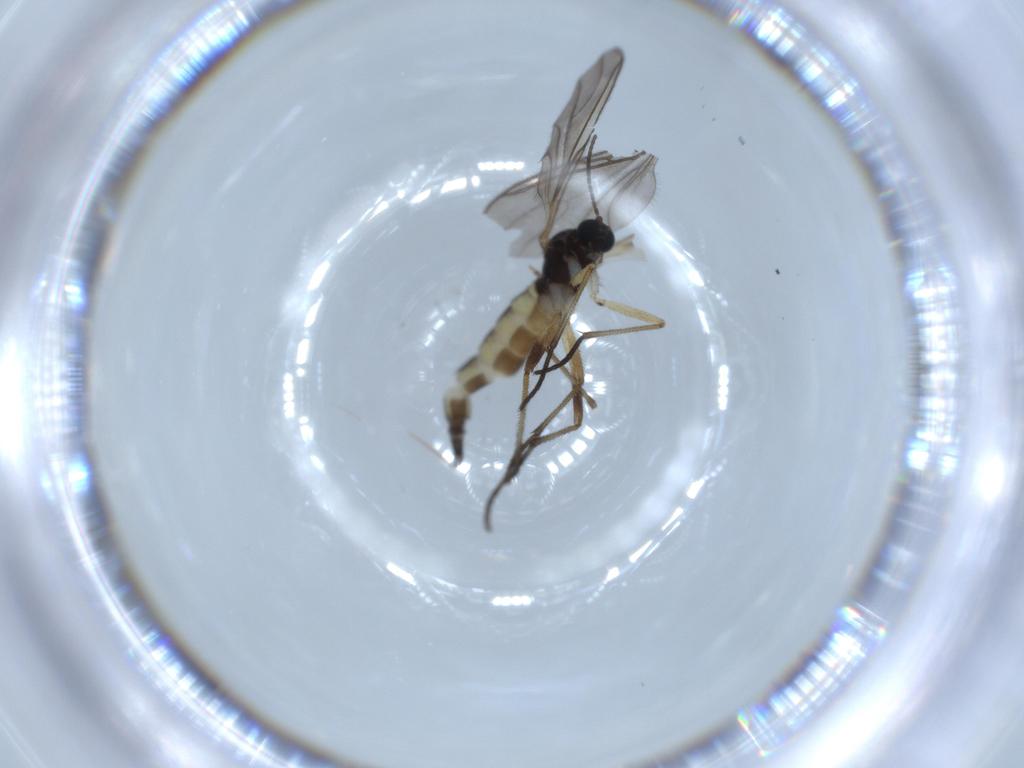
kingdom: Animalia
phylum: Arthropoda
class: Insecta
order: Diptera
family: Sciaridae
